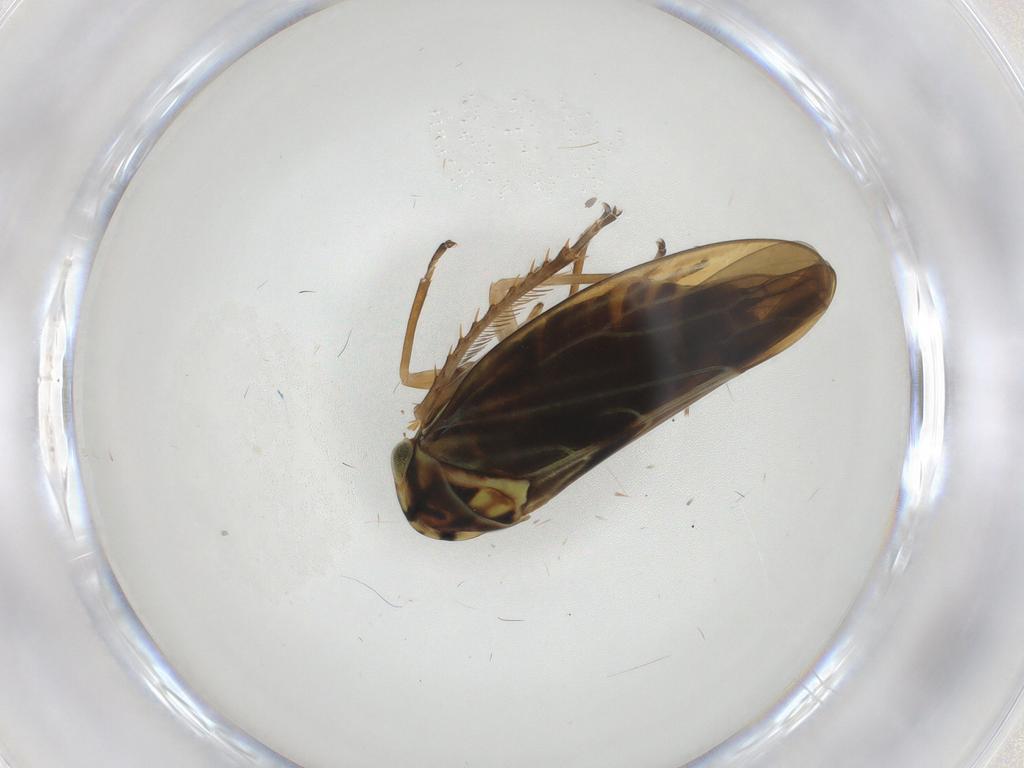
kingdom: Animalia
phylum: Arthropoda
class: Insecta
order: Hemiptera
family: Cicadellidae
